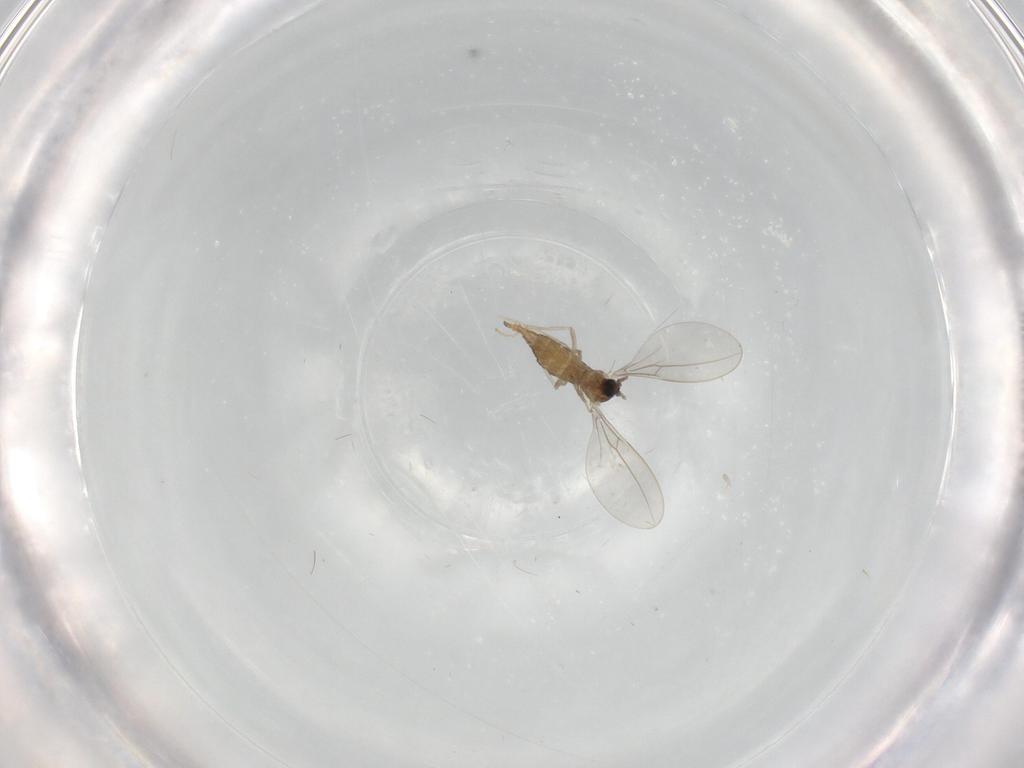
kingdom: Animalia
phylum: Arthropoda
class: Insecta
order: Diptera
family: Cecidomyiidae
